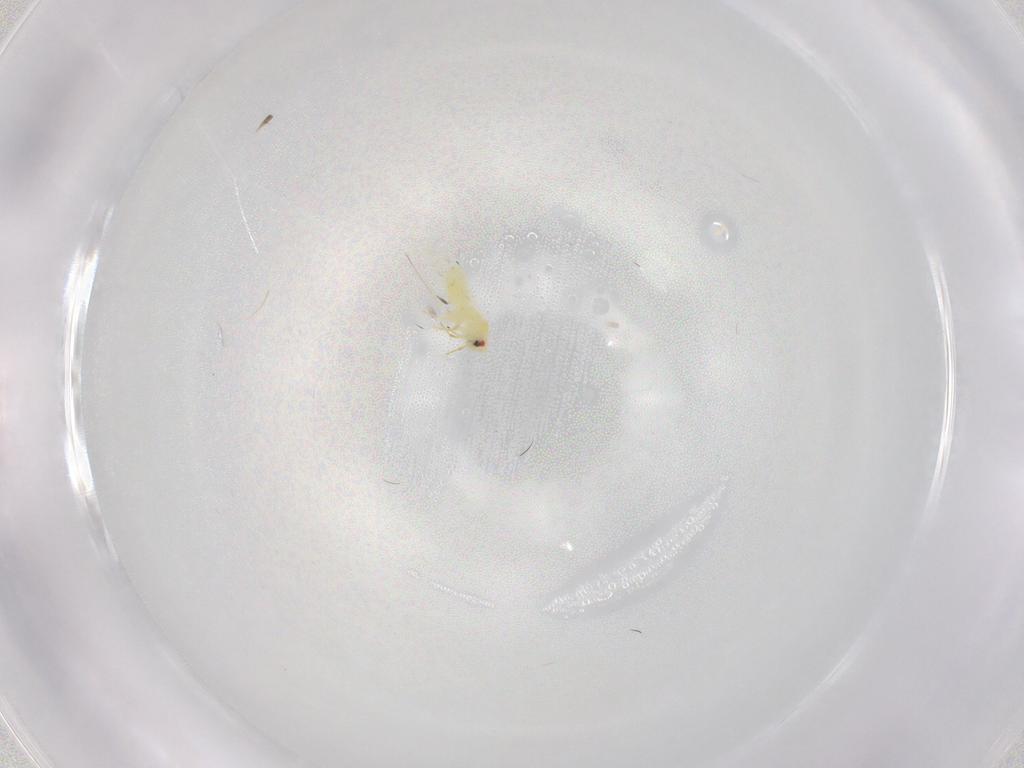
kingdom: Animalia
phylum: Arthropoda
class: Insecta
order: Hemiptera
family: Aleyrodidae
